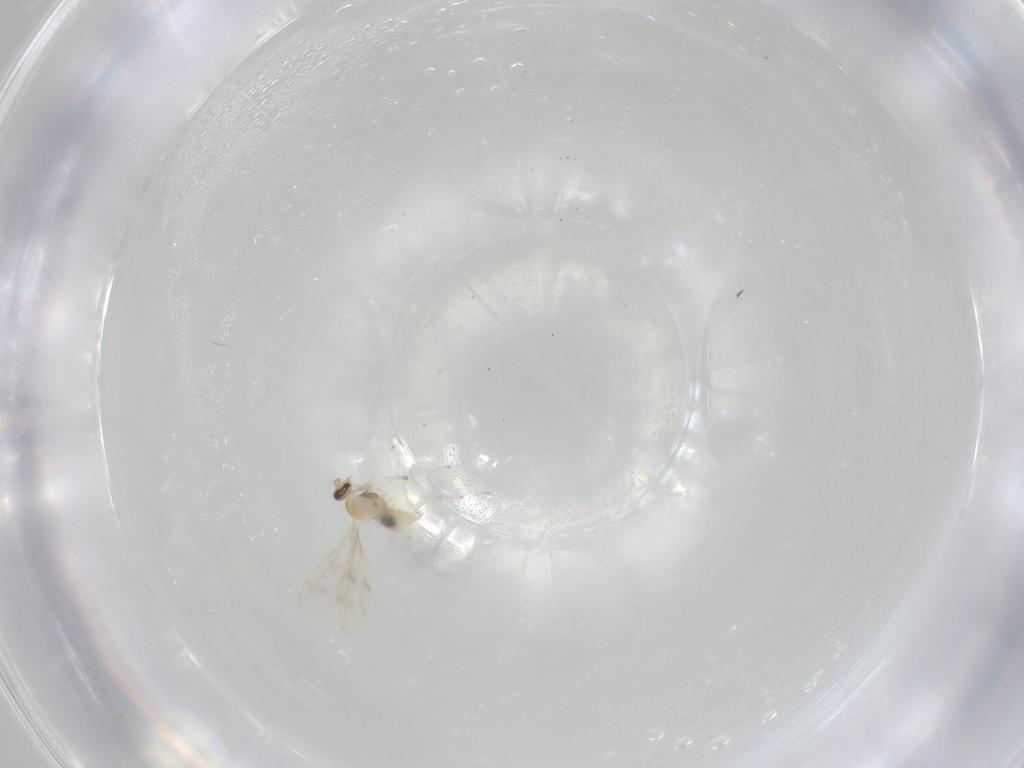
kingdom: Animalia
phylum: Arthropoda
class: Insecta
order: Diptera
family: Cecidomyiidae
